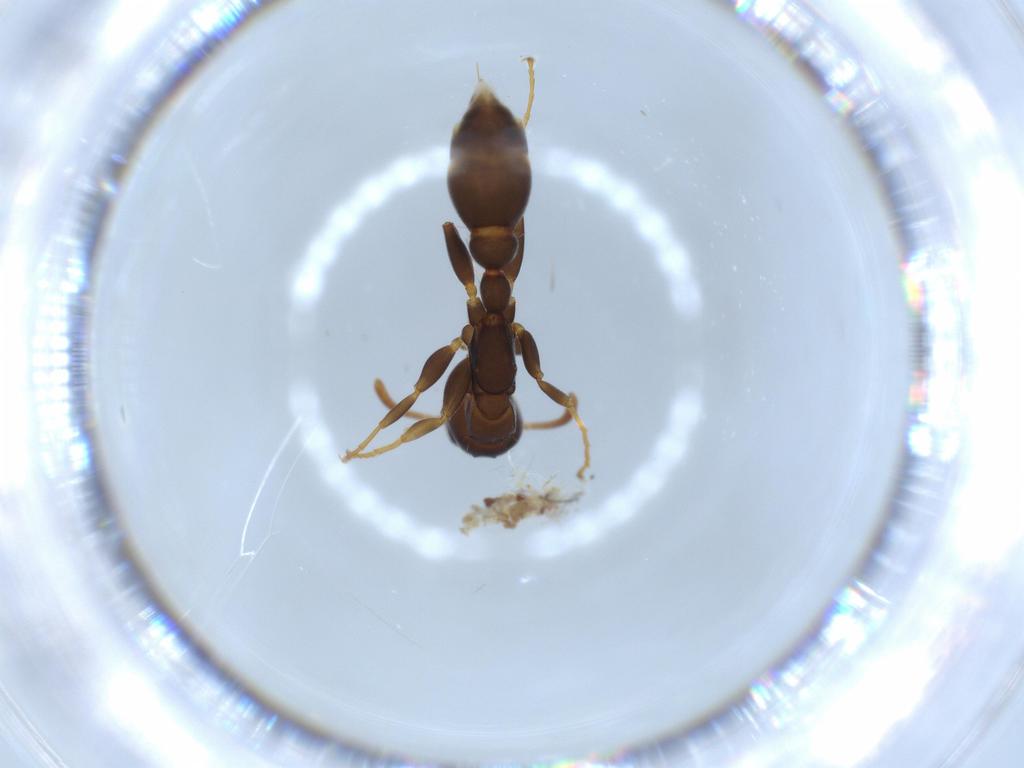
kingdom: Animalia
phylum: Arthropoda
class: Insecta
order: Hymenoptera
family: Formicidae
